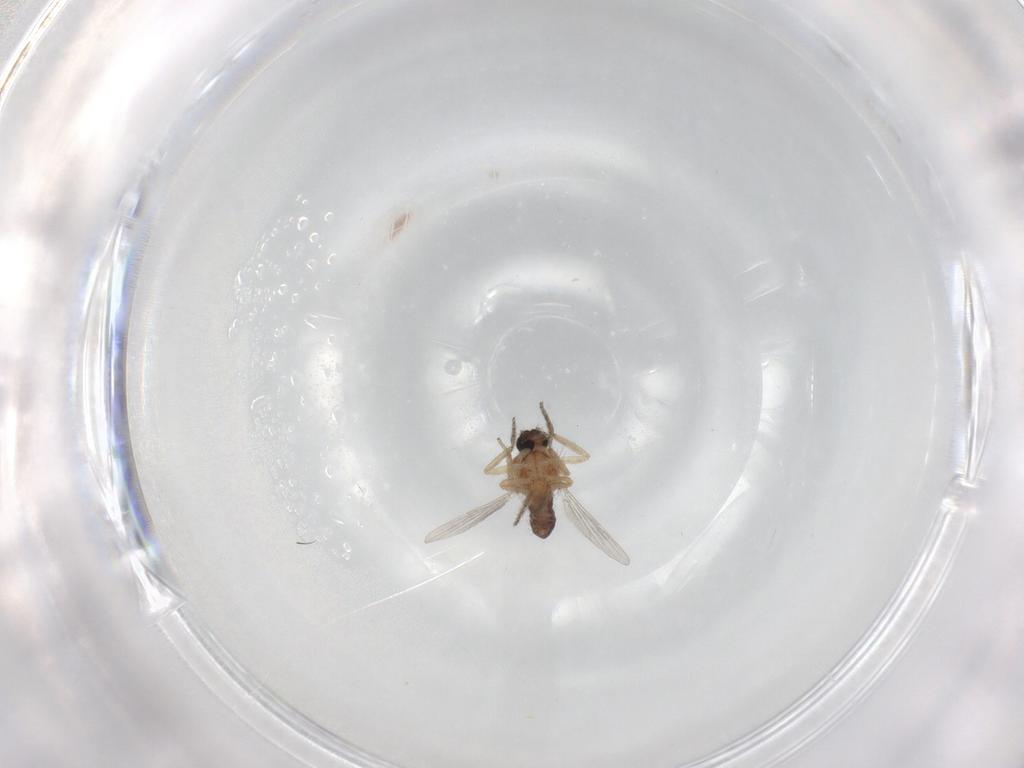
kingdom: Animalia
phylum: Arthropoda
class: Insecta
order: Diptera
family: Ceratopogonidae
